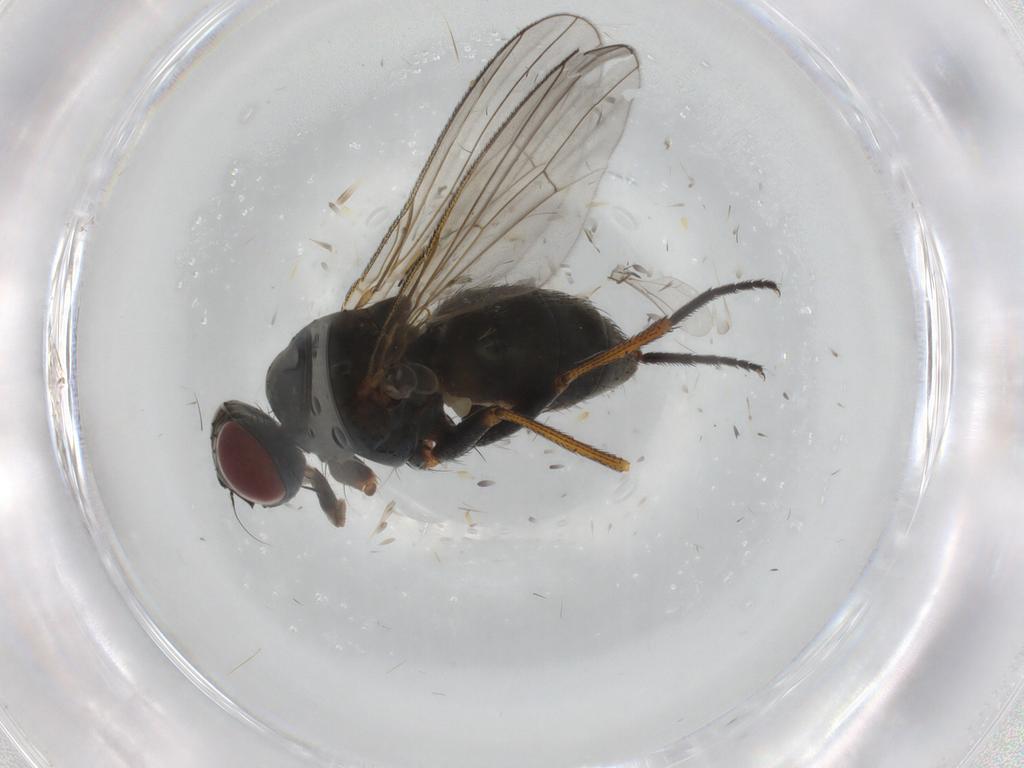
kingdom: Animalia
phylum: Arthropoda
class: Insecta
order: Diptera
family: Muscidae
